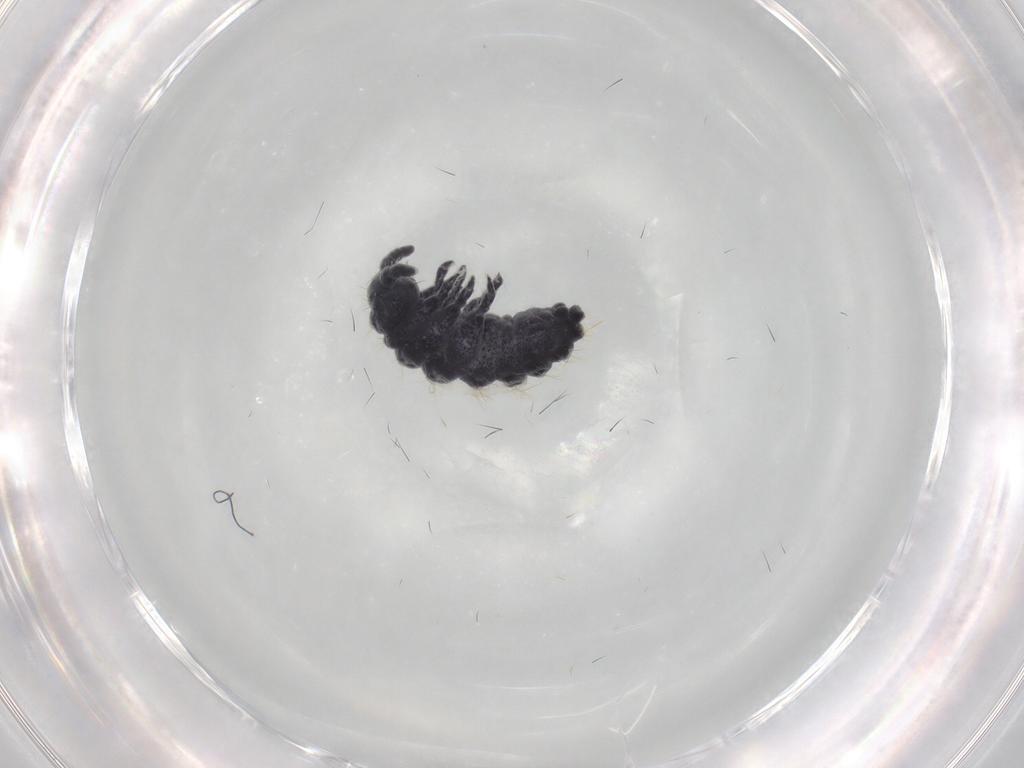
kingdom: Animalia
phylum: Arthropoda
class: Collembola
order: Poduromorpha
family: Neanuridae
